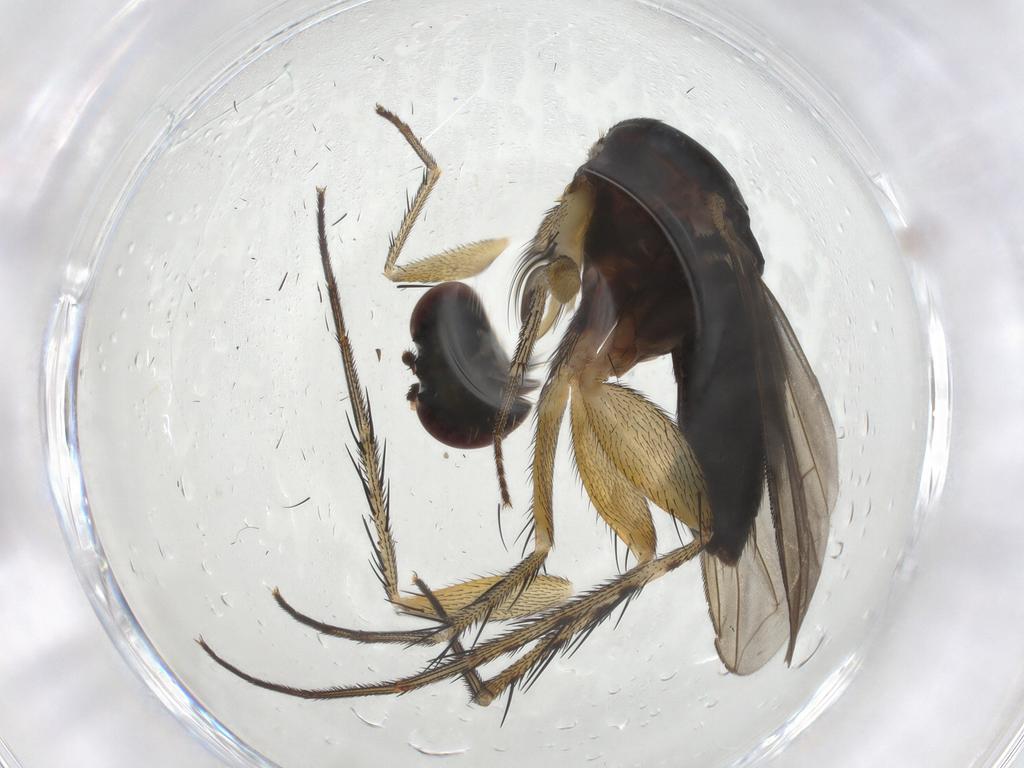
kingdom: Animalia
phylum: Arthropoda
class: Insecta
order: Diptera
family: Dolichopodidae
